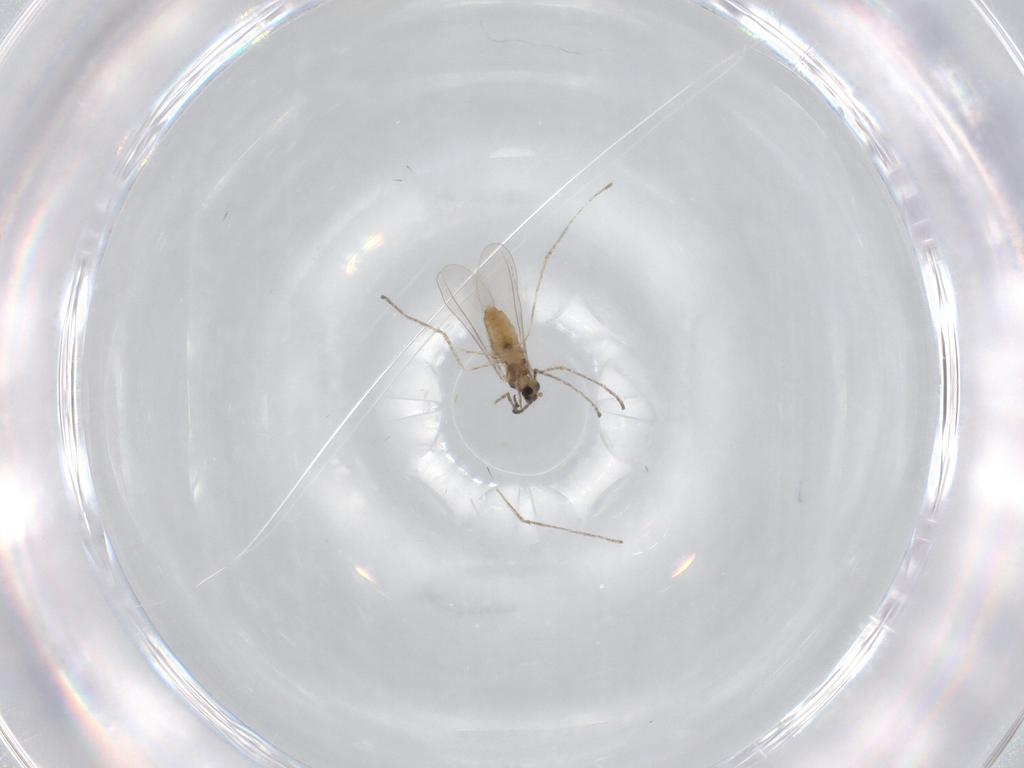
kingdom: Animalia
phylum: Arthropoda
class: Insecta
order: Diptera
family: Cecidomyiidae
